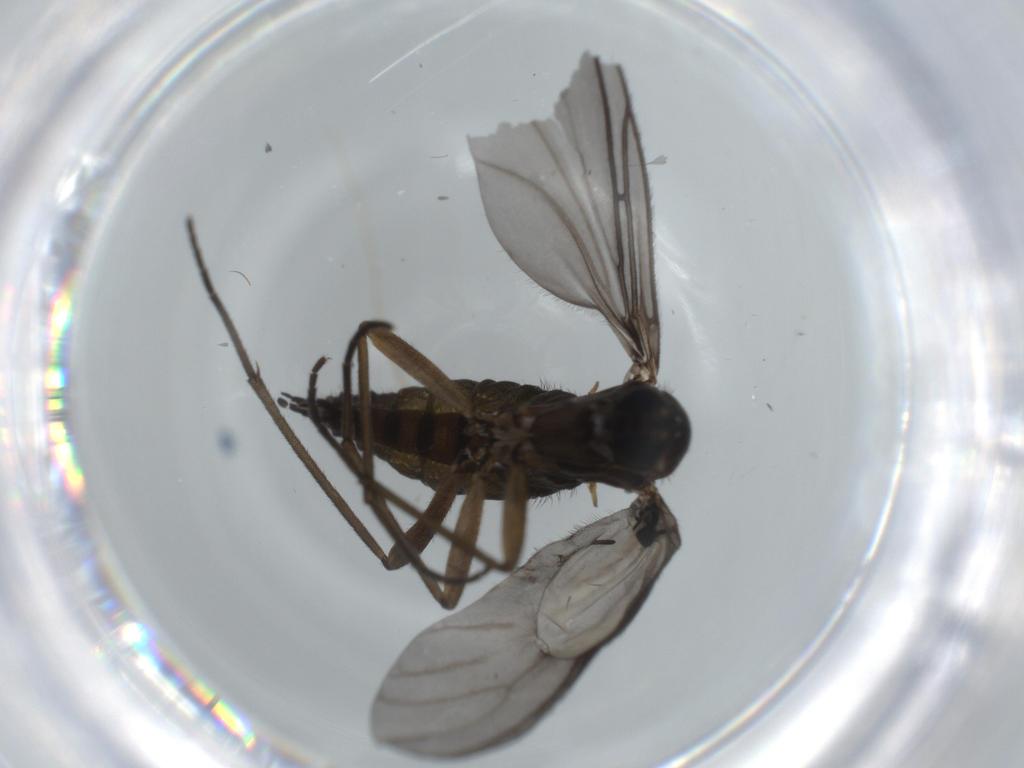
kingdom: Animalia
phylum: Arthropoda
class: Insecta
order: Diptera
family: Sciaridae
